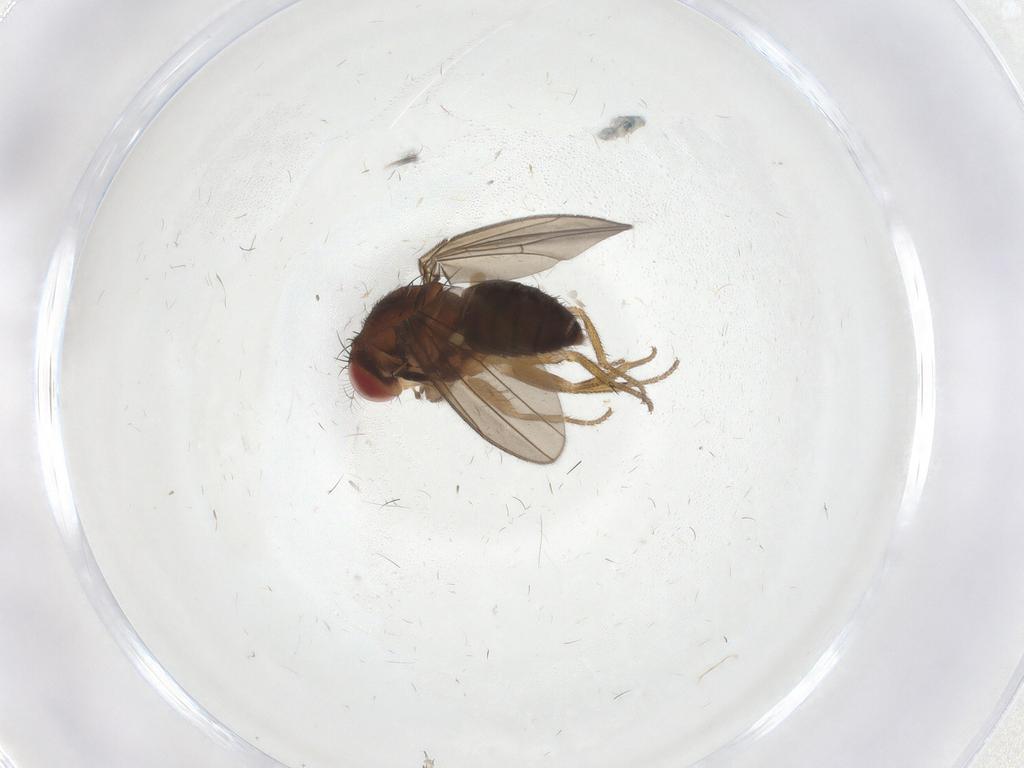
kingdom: Animalia
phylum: Arthropoda
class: Insecta
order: Diptera
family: Drosophilidae
